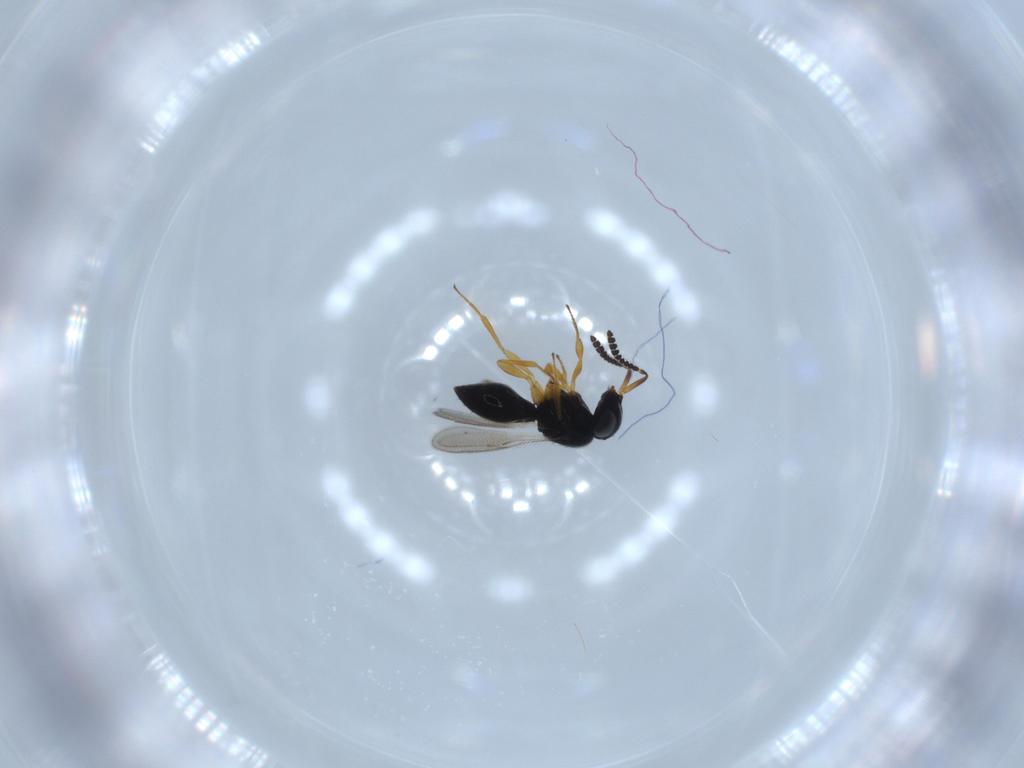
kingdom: Animalia
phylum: Arthropoda
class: Insecta
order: Hymenoptera
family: Scelionidae
